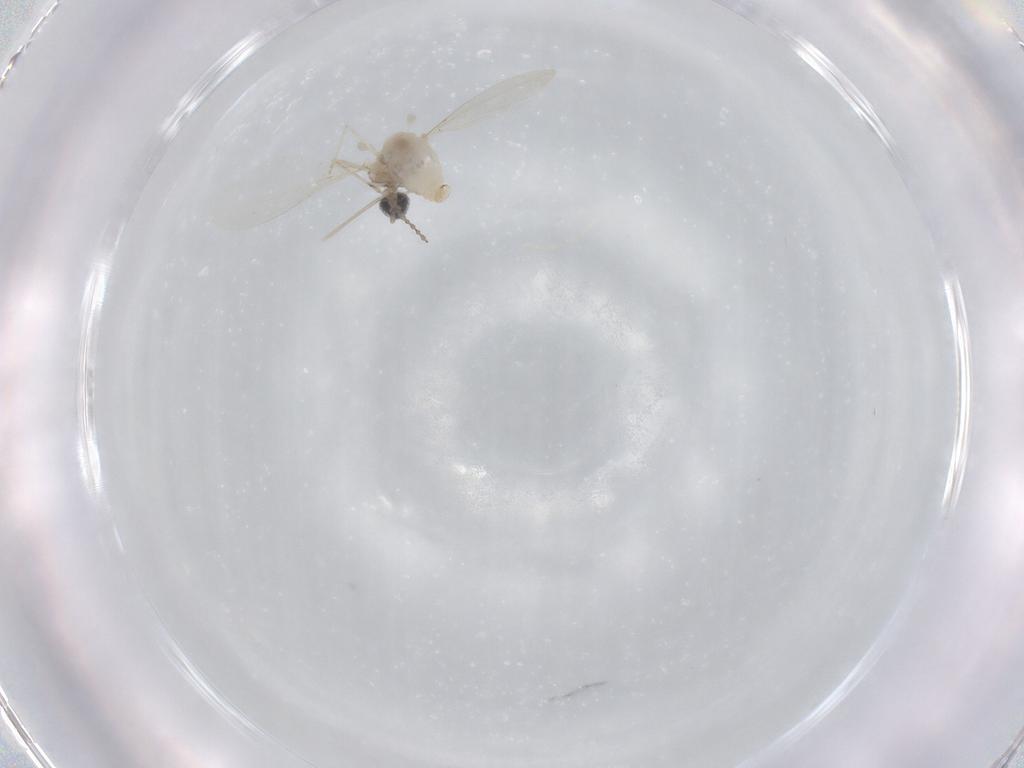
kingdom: Animalia
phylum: Arthropoda
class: Insecta
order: Diptera
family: Cecidomyiidae
